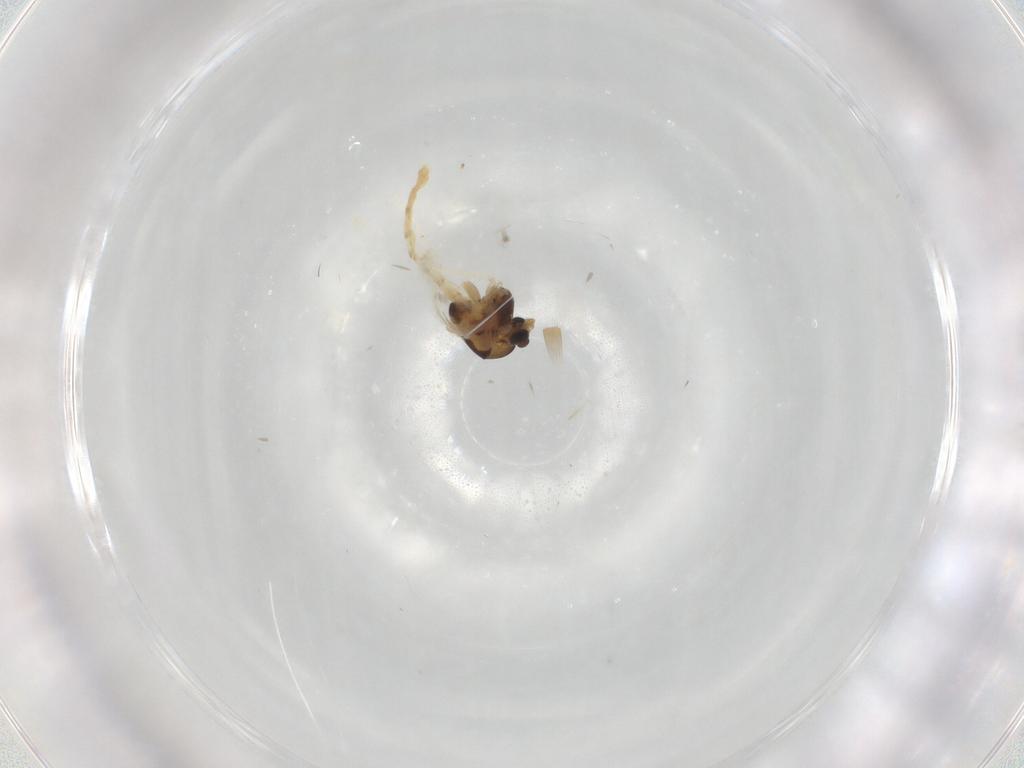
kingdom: Animalia
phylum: Arthropoda
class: Insecta
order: Diptera
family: Chironomidae
